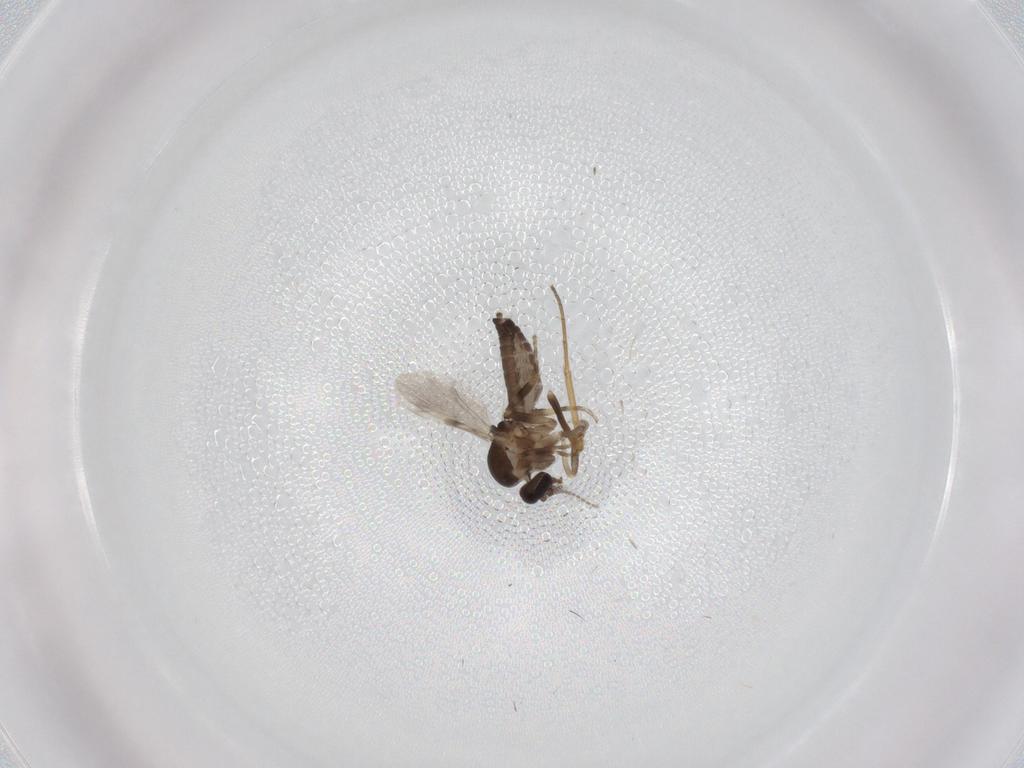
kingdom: Animalia
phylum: Arthropoda
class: Insecta
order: Diptera
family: Ceratopogonidae
